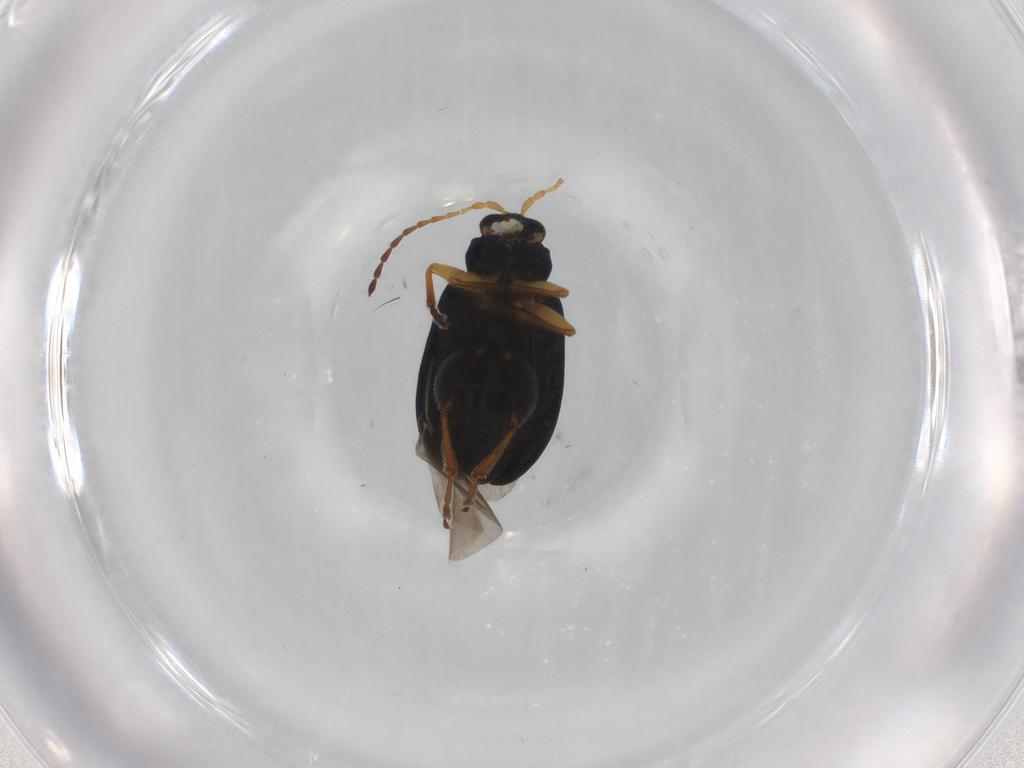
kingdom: Animalia
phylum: Arthropoda
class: Insecta
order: Coleoptera
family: Chrysomelidae
